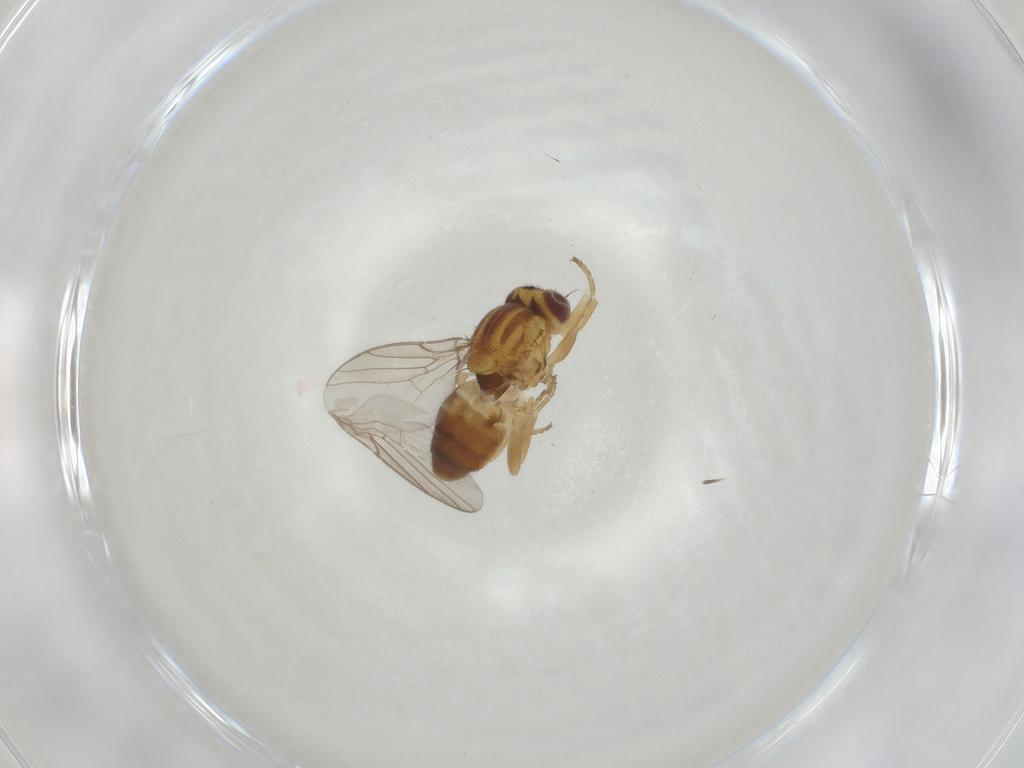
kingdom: Animalia
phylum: Arthropoda
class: Insecta
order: Diptera
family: Chloropidae
